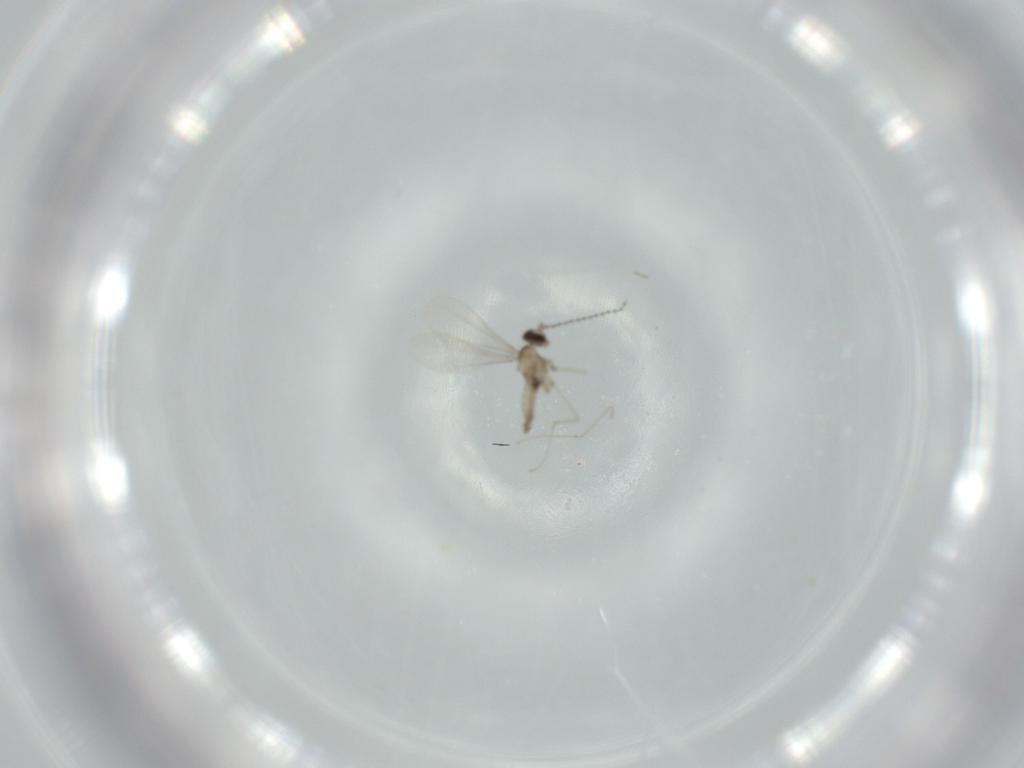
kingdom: Animalia
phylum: Arthropoda
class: Insecta
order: Diptera
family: Cecidomyiidae
